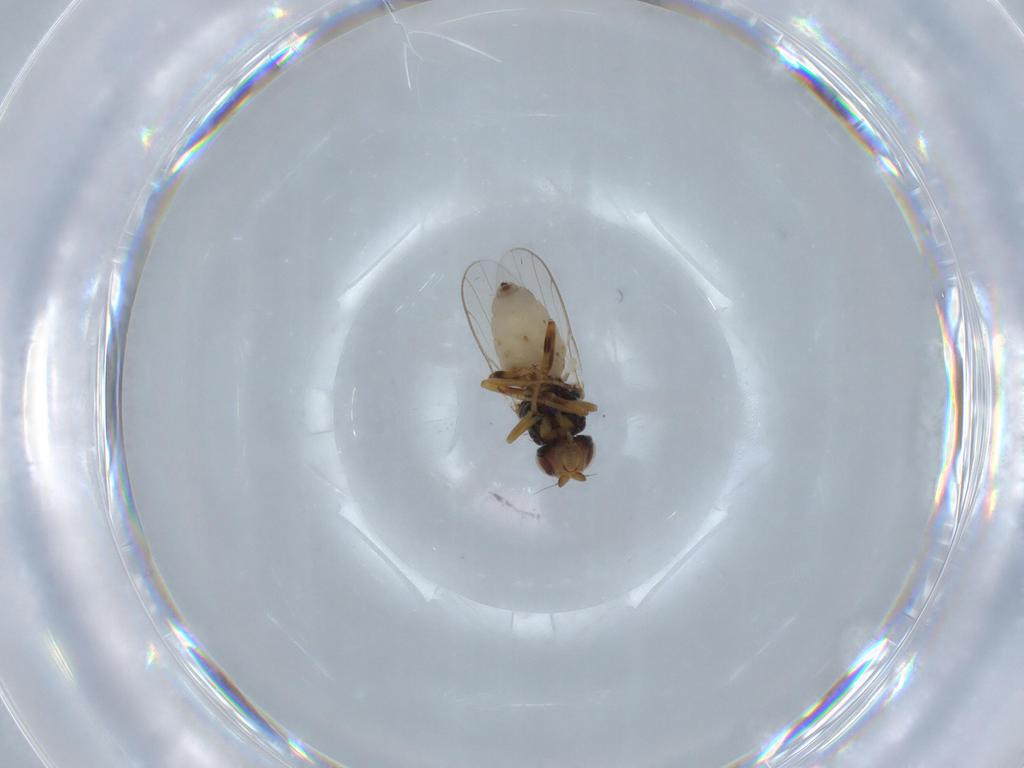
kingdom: Animalia
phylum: Arthropoda
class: Insecta
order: Diptera
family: Chloropidae
